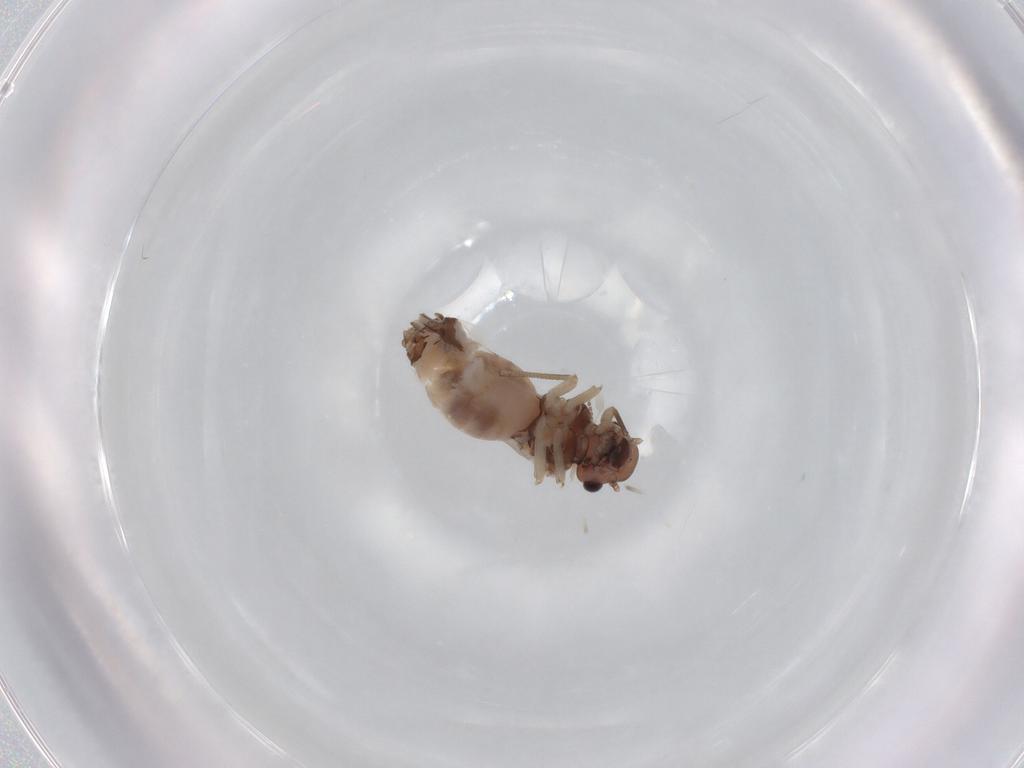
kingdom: Animalia
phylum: Arthropoda
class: Insecta
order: Psocodea
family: Peripsocidae
